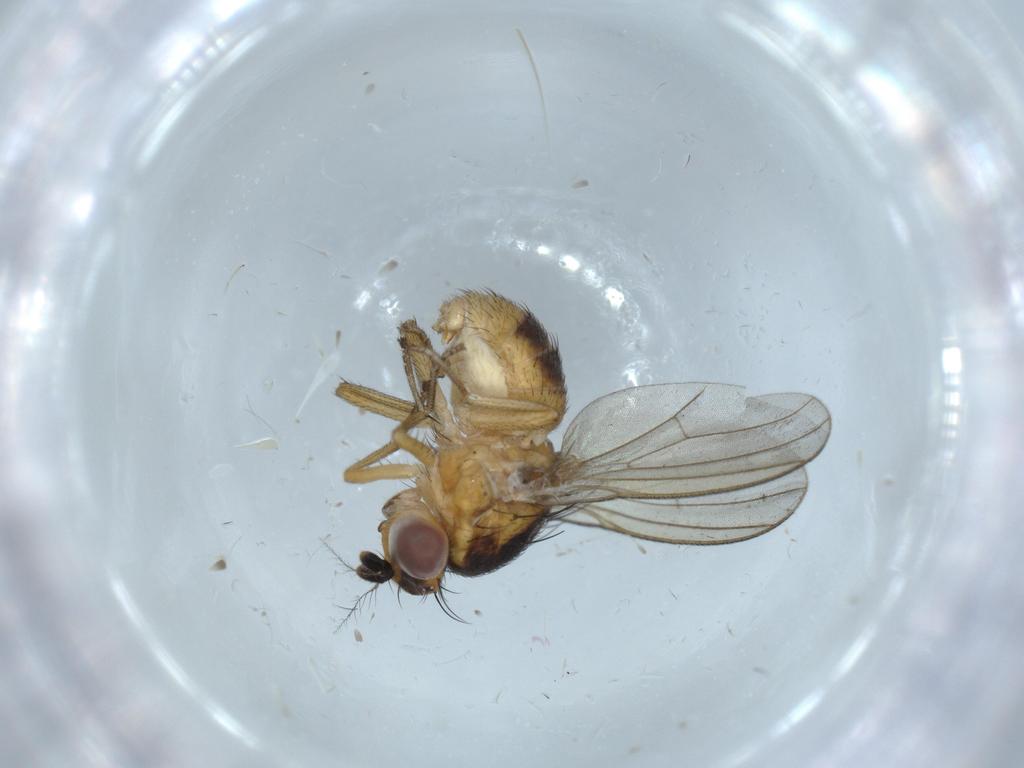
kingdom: Animalia
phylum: Arthropoda
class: Insecta
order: Diptera
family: Lauxaniidae
